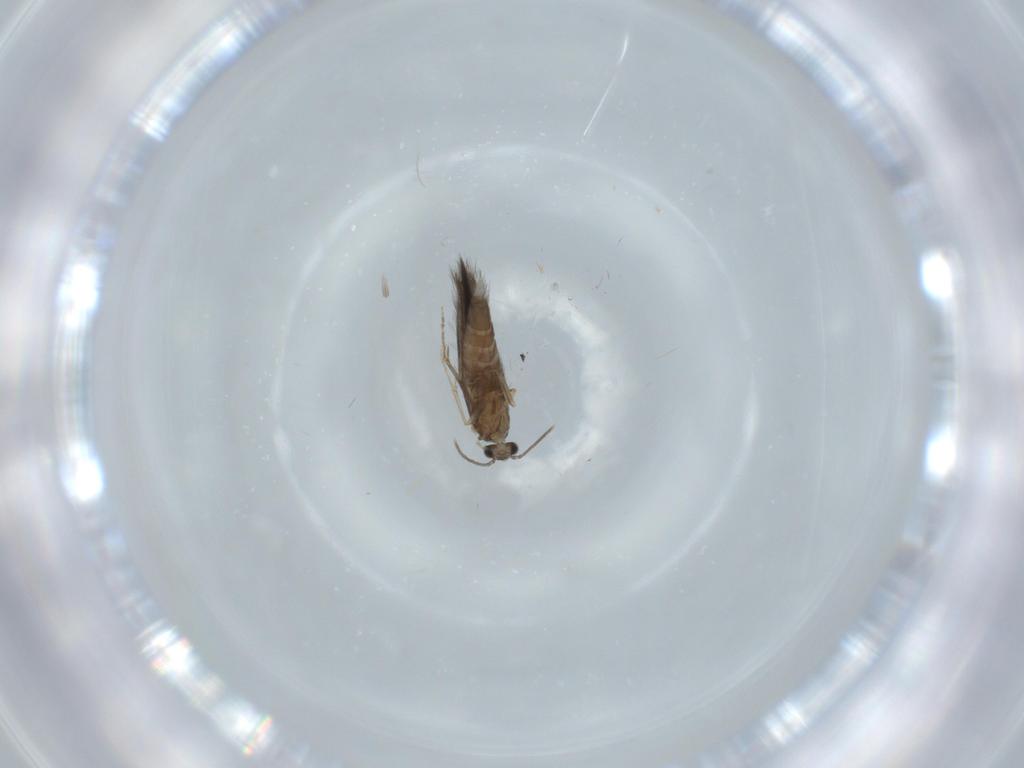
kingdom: Animalia
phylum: Arthropoda
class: Insecta
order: Trichoptera
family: Hydroptilidae
